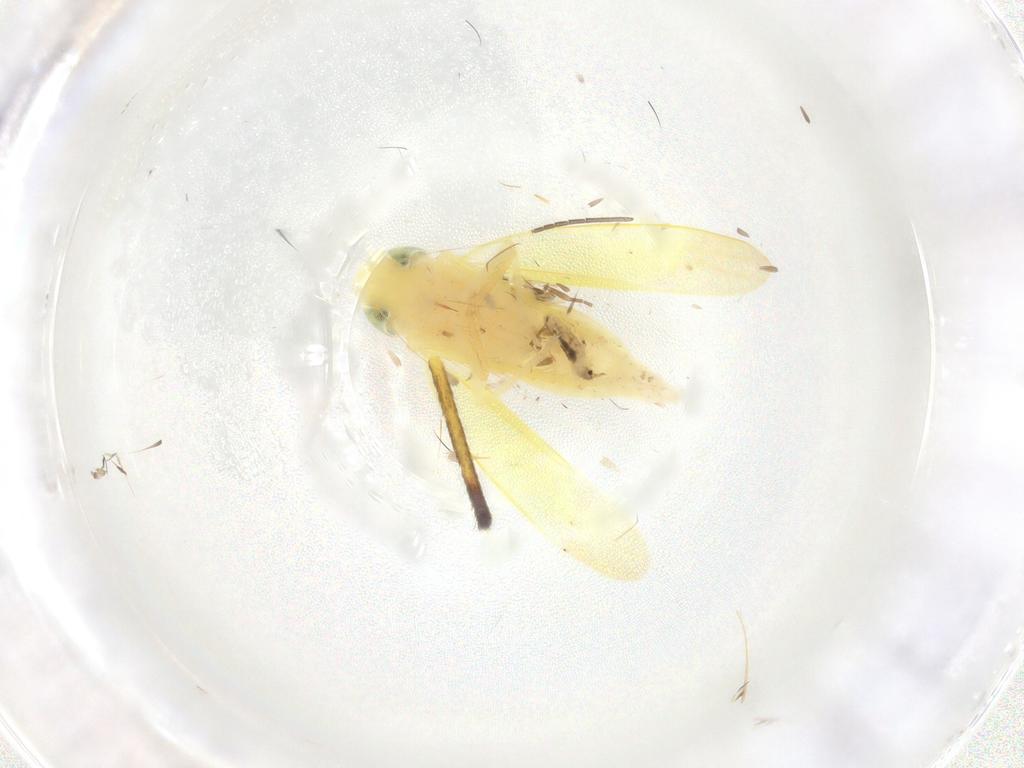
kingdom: Animalia
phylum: Arthropoda
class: Insecta
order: Hemiptera
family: Cicadellidae
